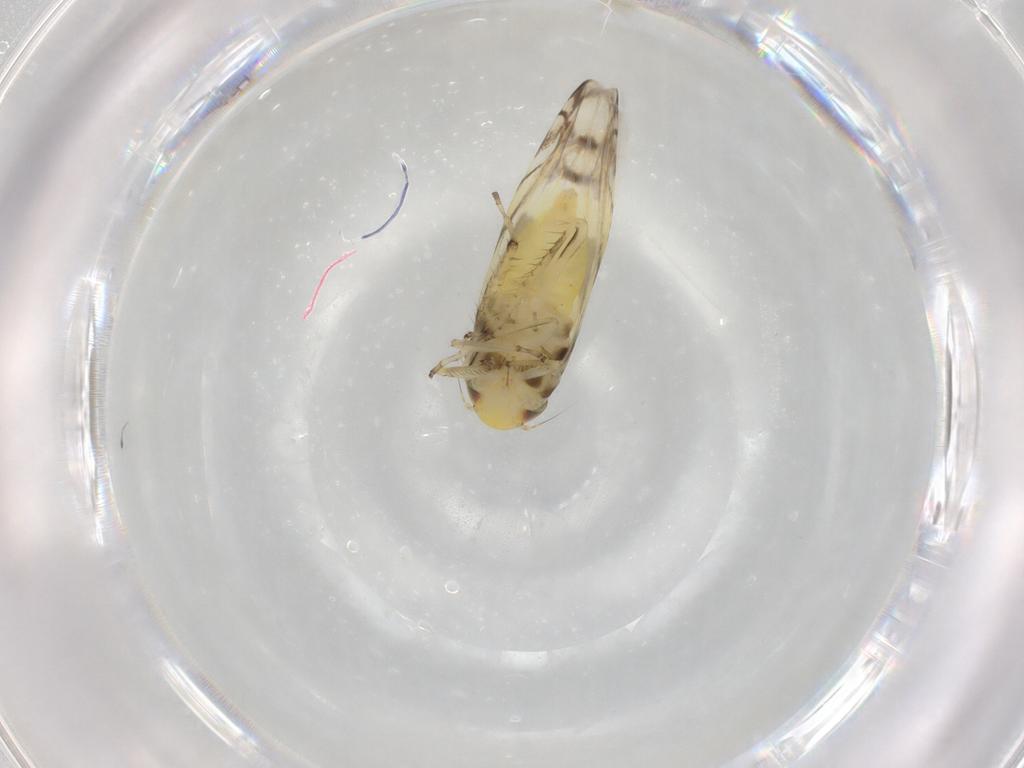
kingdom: Animalia
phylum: Arthropoda
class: Insecta
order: Hemiptera
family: Cicadellidae
